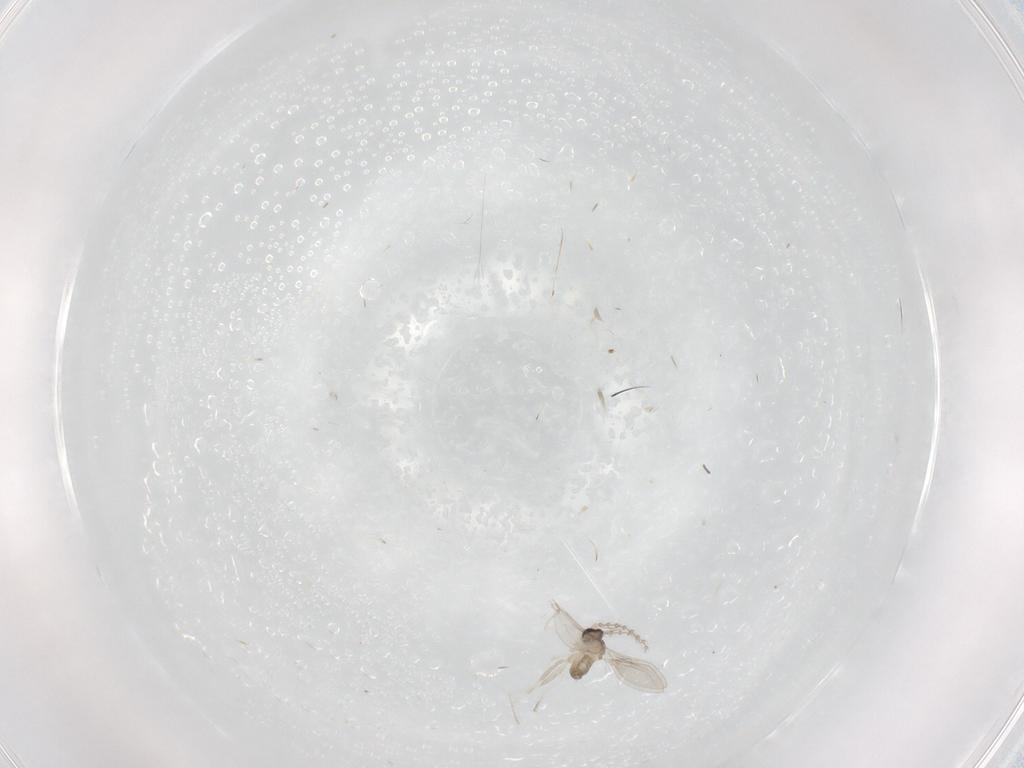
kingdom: Animalia
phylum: Arthropoda
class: Insecta
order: Diptera
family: Cecidomyiidae
